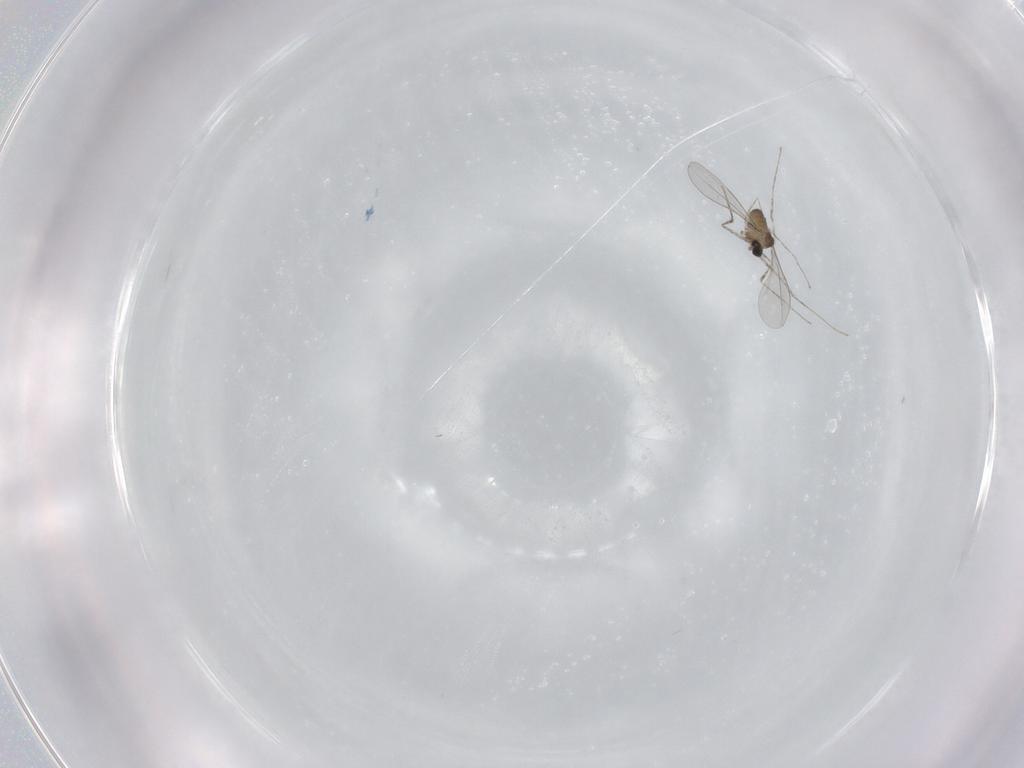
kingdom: Animalia
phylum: Arthropoda
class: Insecta
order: Diptera
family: Cecidomyiidae
